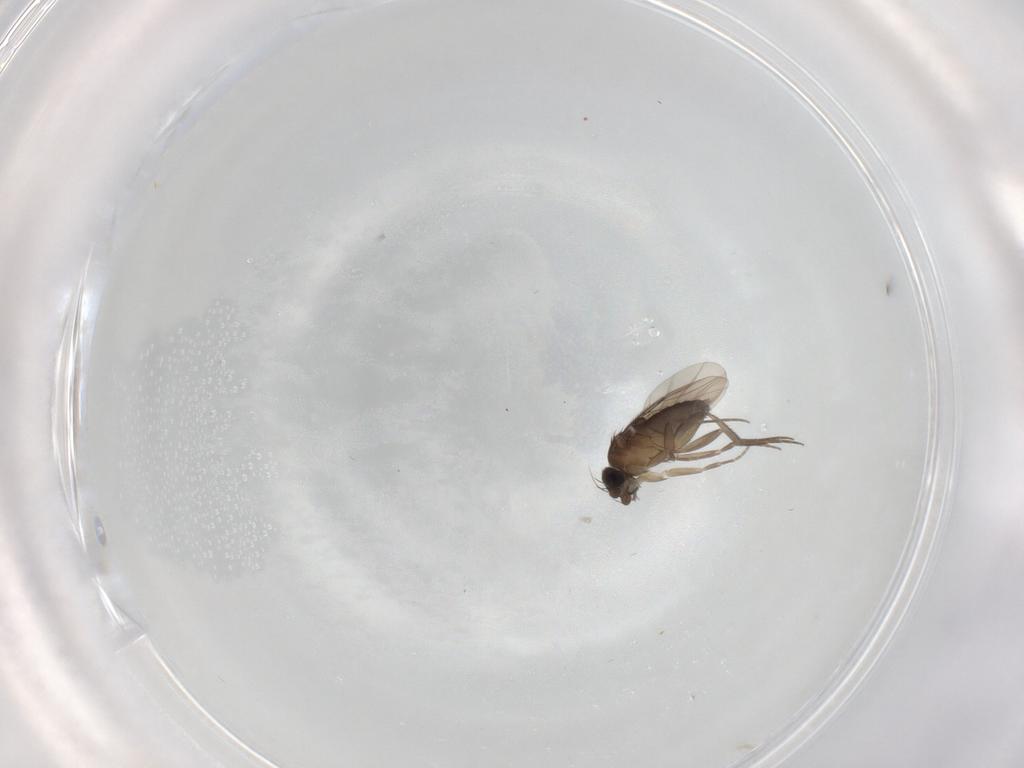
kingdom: Animalia
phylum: Arthropoda
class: Insecta
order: Diptera
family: Phoridae
